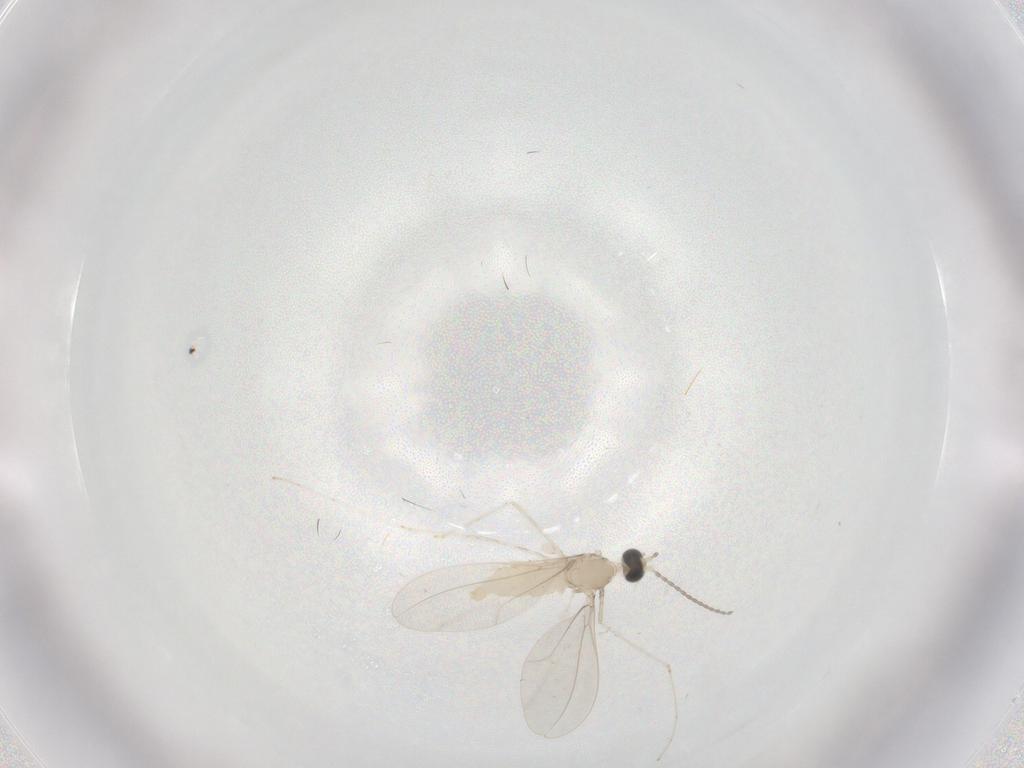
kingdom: Animalia
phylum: Arthropoda
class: Insecta
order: Diptera
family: Cecidomyiidae
